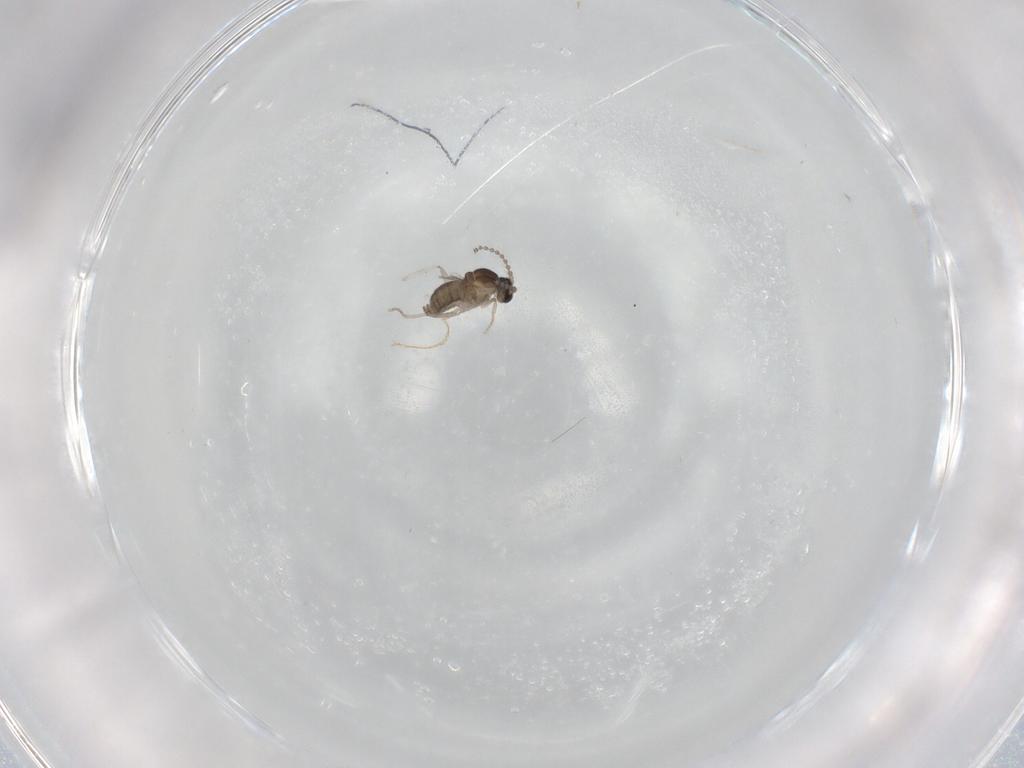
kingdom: Animalia
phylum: Arthropoda
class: Insecta
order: Diptera
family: Cecidomyiidae
